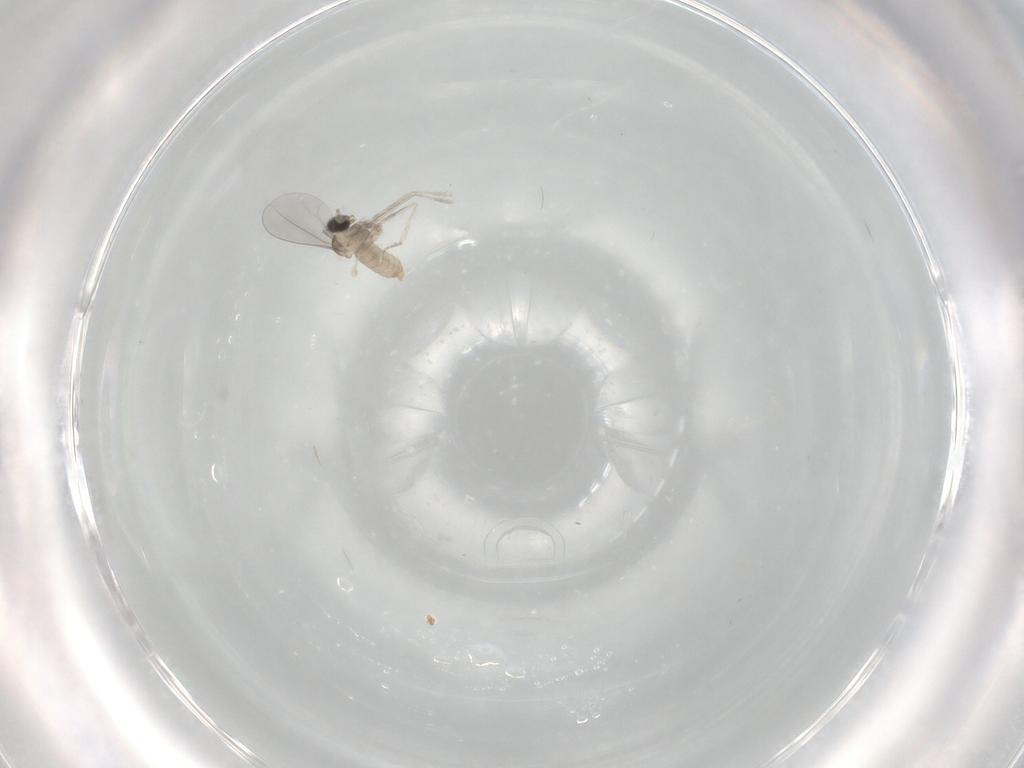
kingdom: Animalia
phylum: Arthropoda
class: Insecta
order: Diptera
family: Cecidomyiidae
